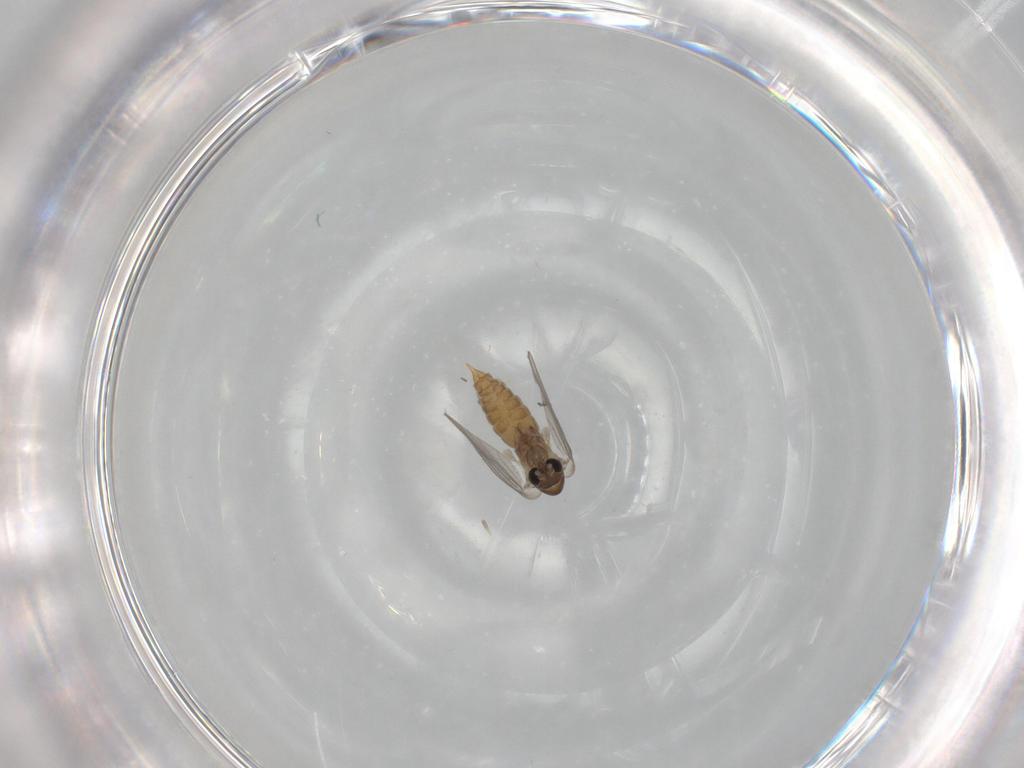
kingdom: Animalia
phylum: Arthropoda
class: Insecta
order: Diptera
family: Psychodidae
